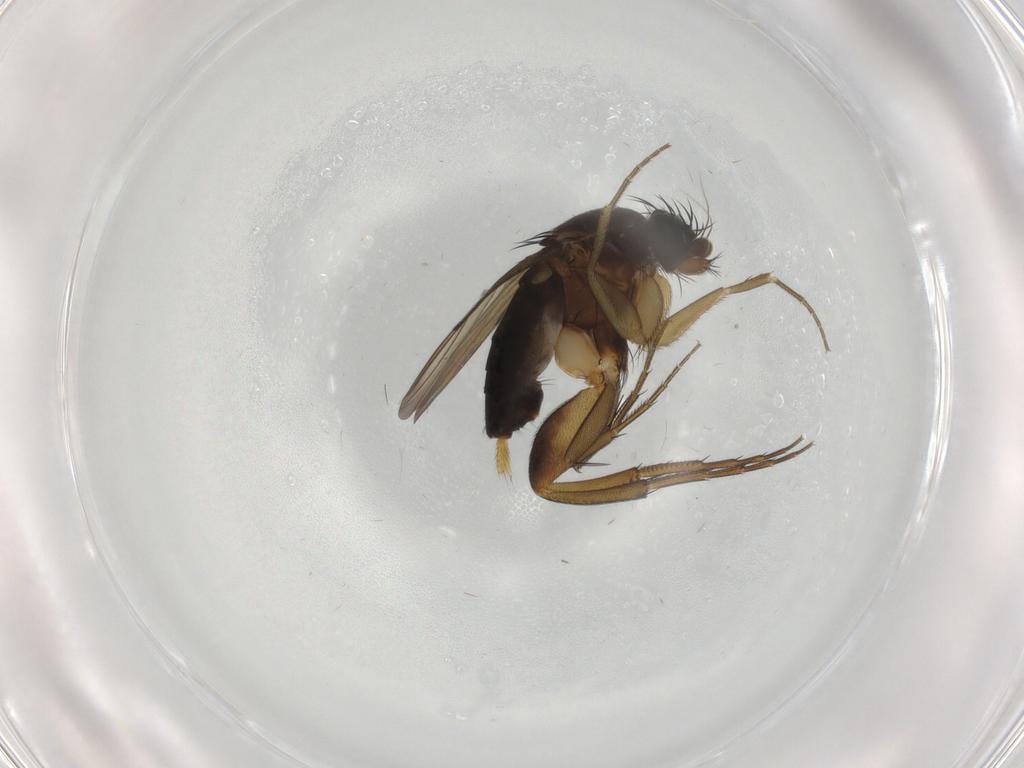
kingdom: Animalia
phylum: Arthropoda
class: Insecta
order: Diptera
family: Phoridae
